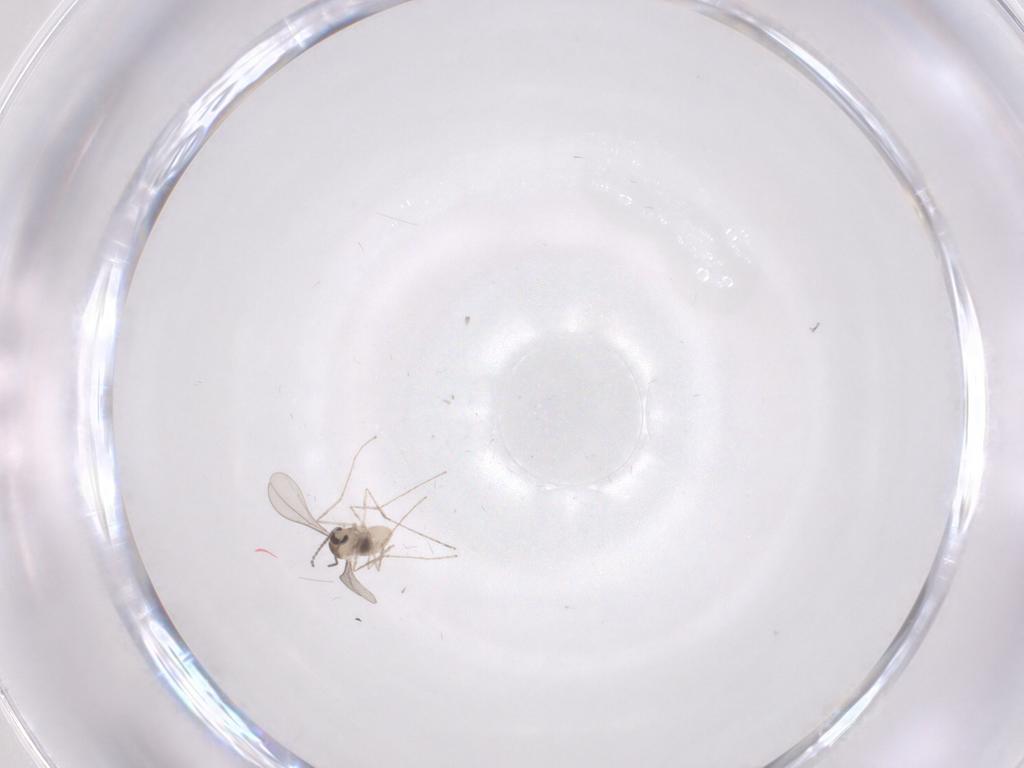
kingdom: Animalia
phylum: Arthropoda
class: Insecta
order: Diptera
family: Cecidomyiidae
